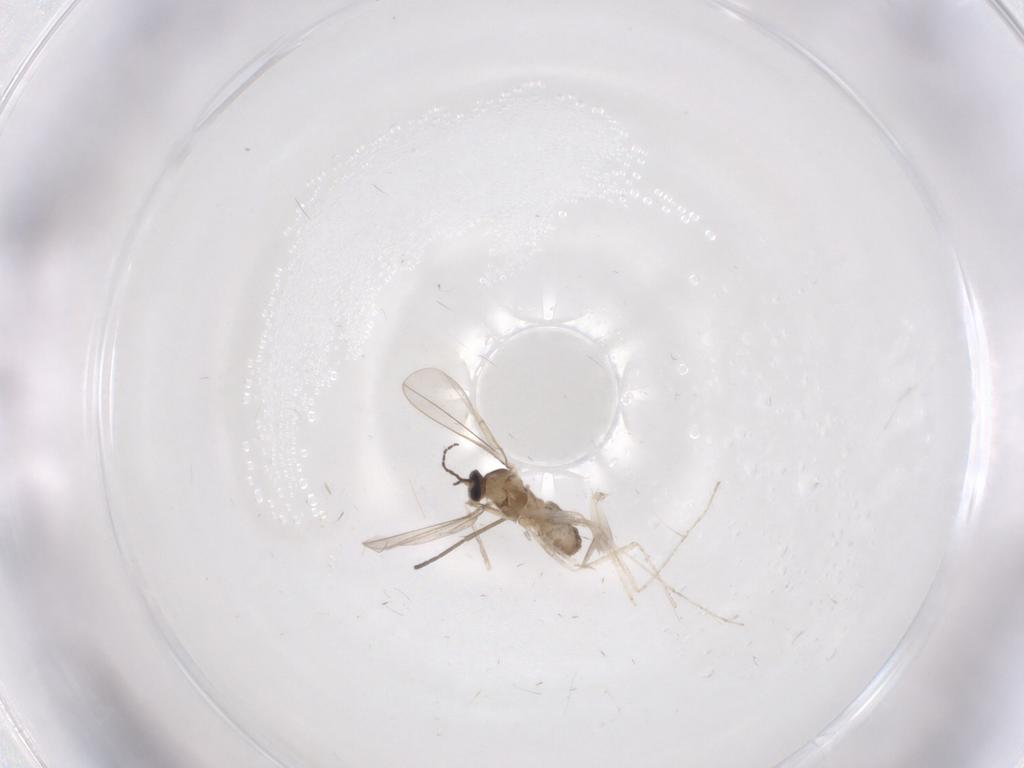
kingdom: Animalia
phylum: Arthropoda
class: Insecta
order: Diptera
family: Cecidomyiidae
